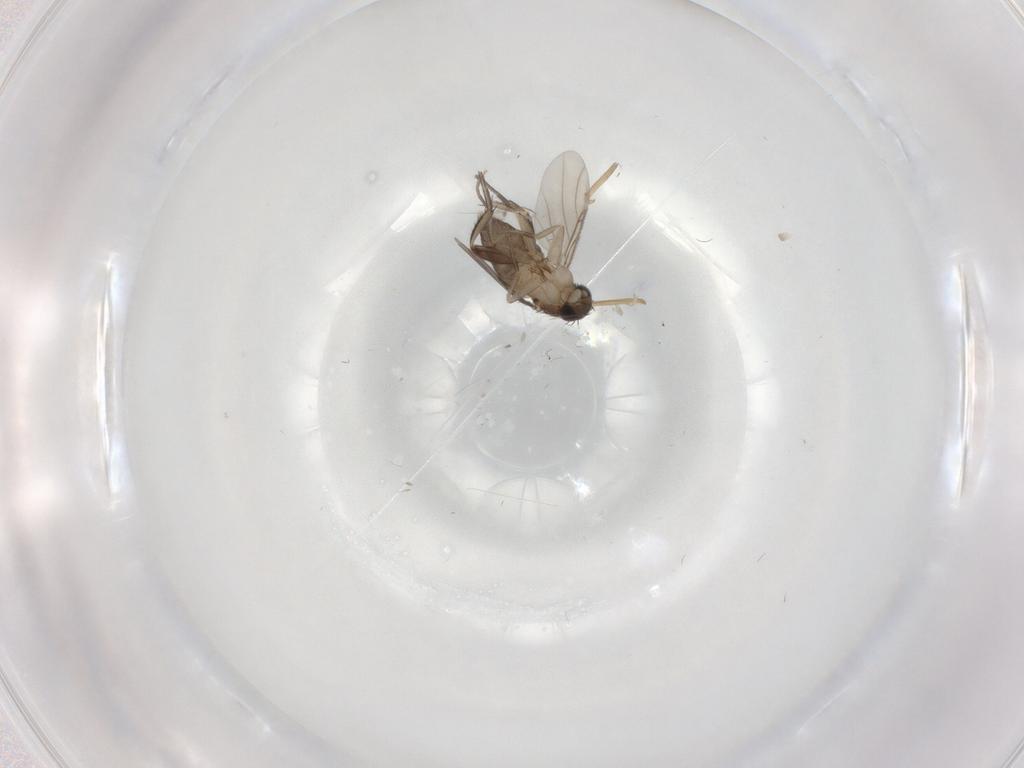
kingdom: Animalia
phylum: Arthropoda
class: Insecta
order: Diptera
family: Phoridae
